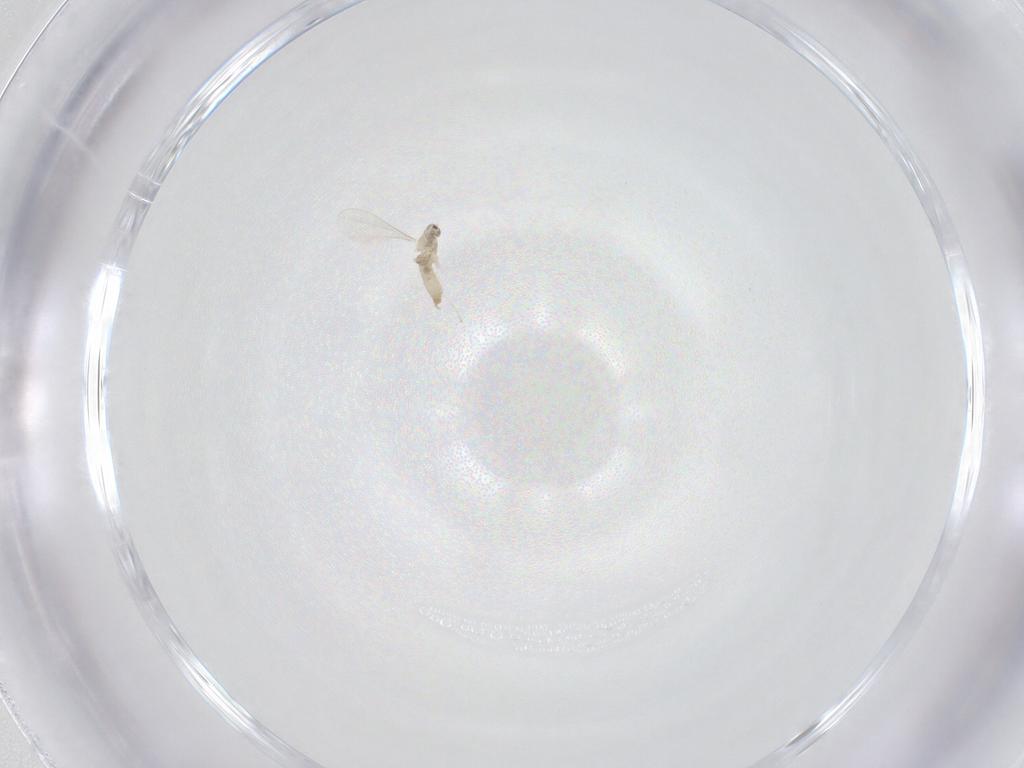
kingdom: Animalia
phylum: Arthropoda
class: Insecta
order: Diptera
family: Cecidomyiidae
